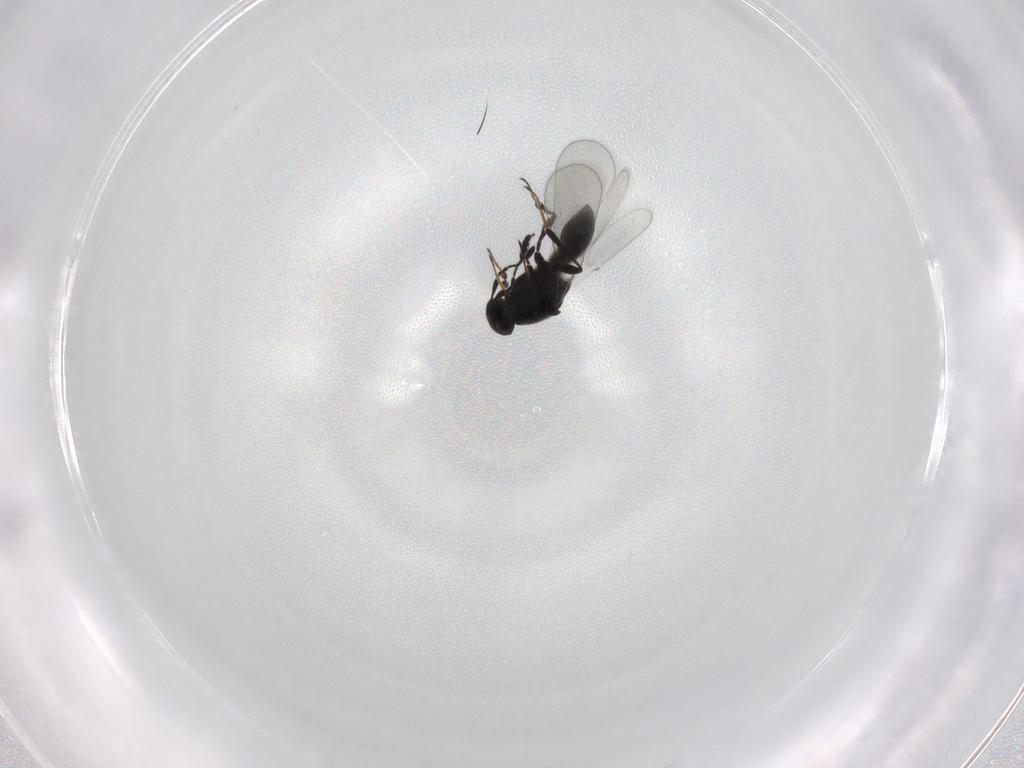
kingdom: Animalia
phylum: Arthropoda
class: Insecta
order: Hymenoptera
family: Platygastridae
